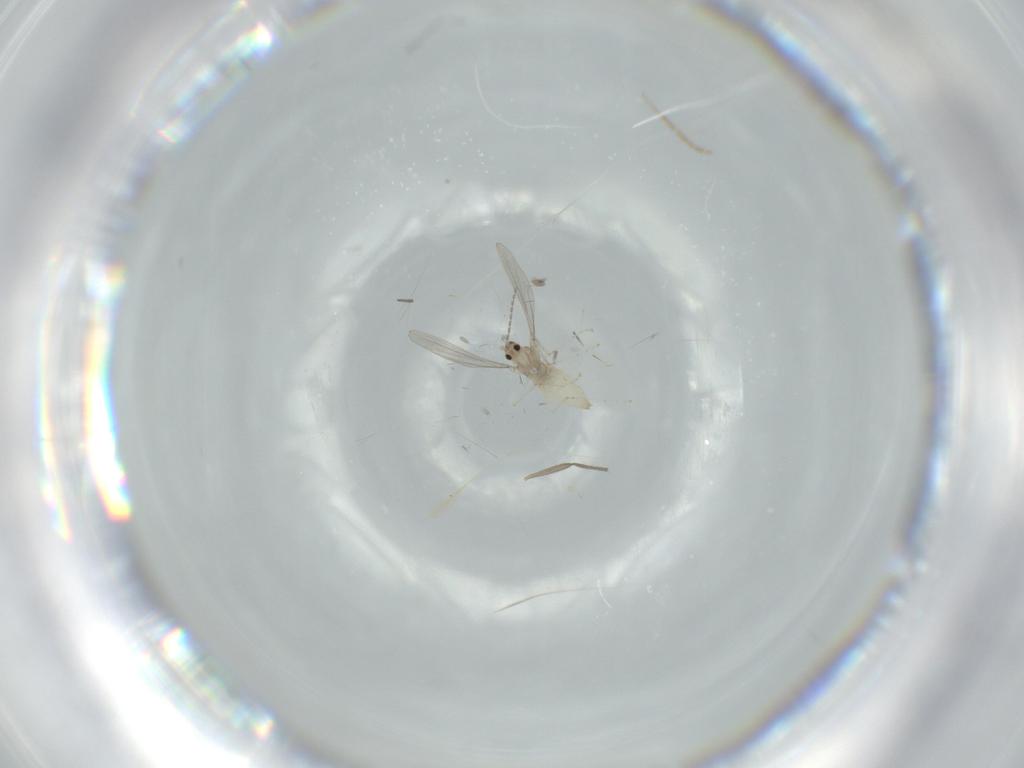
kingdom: Animalia
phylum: Arthropoda
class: Insecta
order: Diptera
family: Cecidomyiidae
